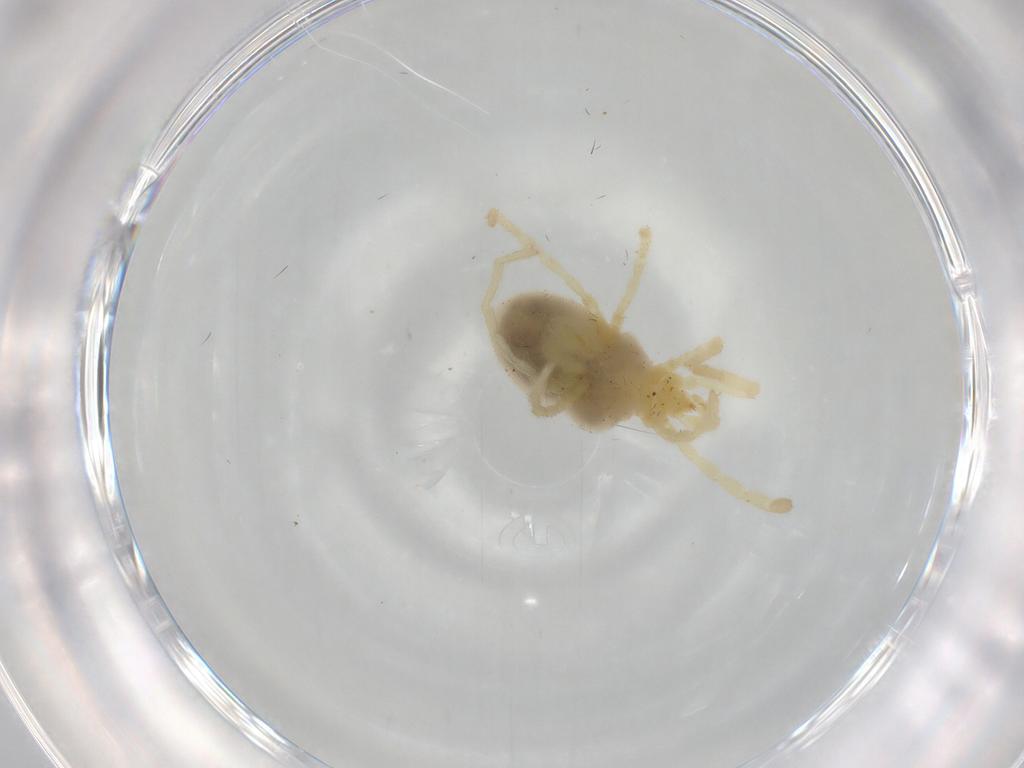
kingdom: Animalia
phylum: Arthropoda
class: Arachnida
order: Trombidiformes
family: Trombidiidae
